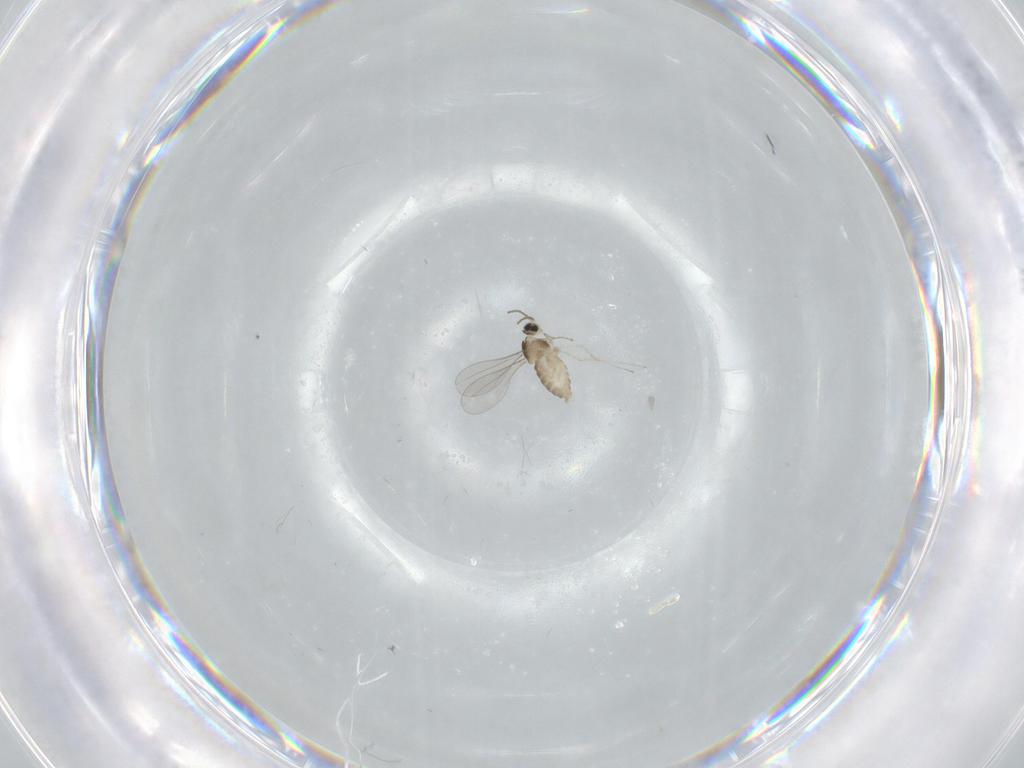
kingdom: Animalia
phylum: Arthropoda
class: Insecta
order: Diptera
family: Cecidomyiidae
